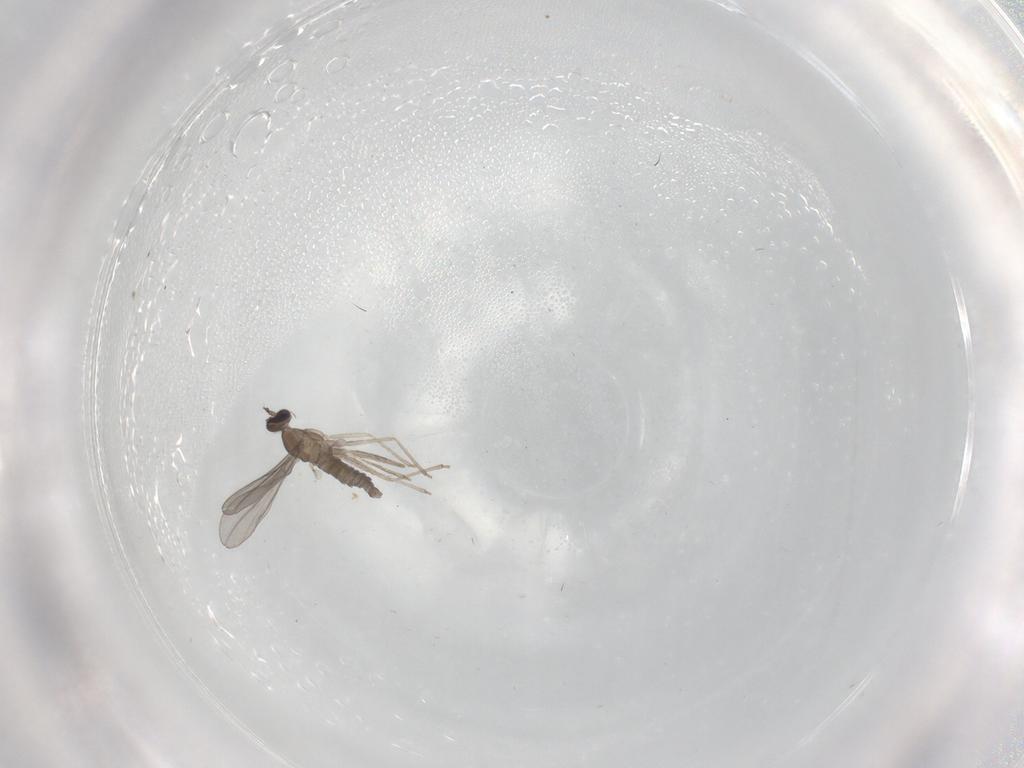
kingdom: Animalia
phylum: Arthropoda
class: Insecta
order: Diptera
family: Cecidomyiidae
